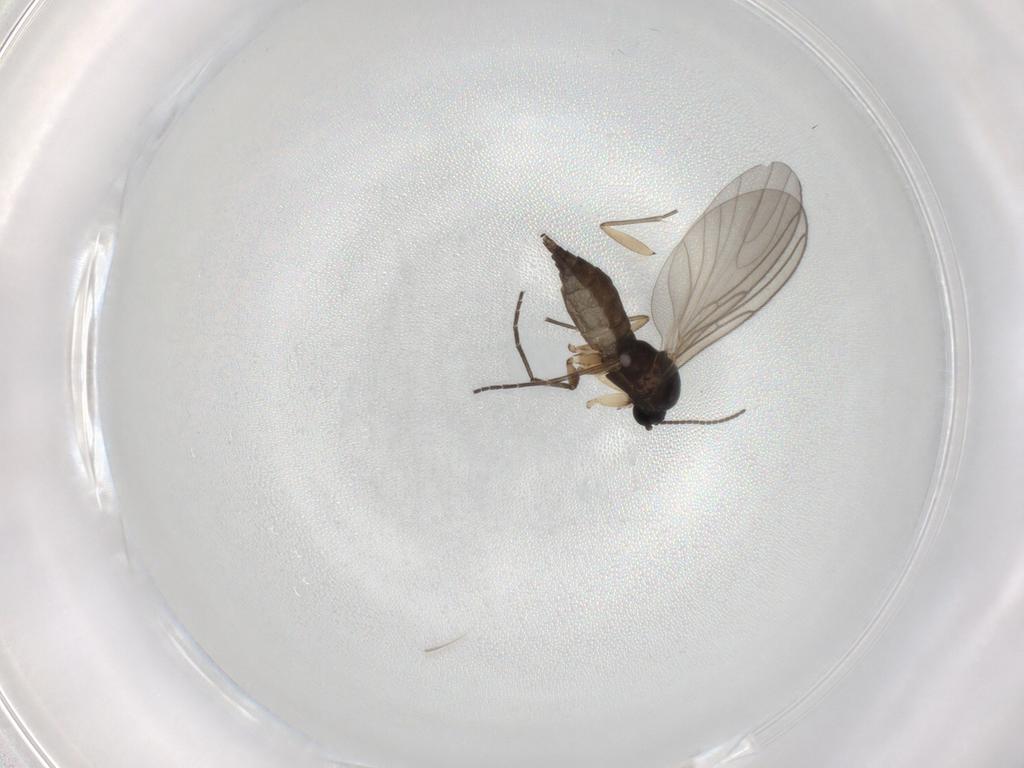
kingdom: Animalia
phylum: Arthropoda
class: Insecta
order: Diptera
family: Sciaridae
